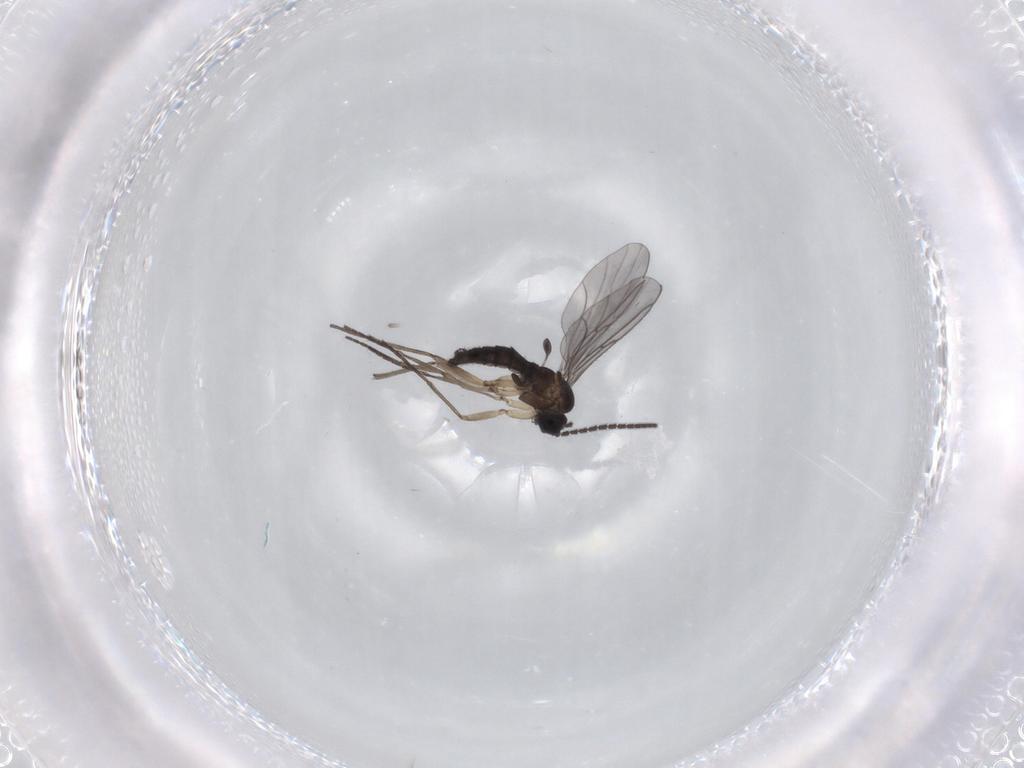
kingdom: Animalia
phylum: Arthropoda
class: Insecta
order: Diptera
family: Sciaridae
